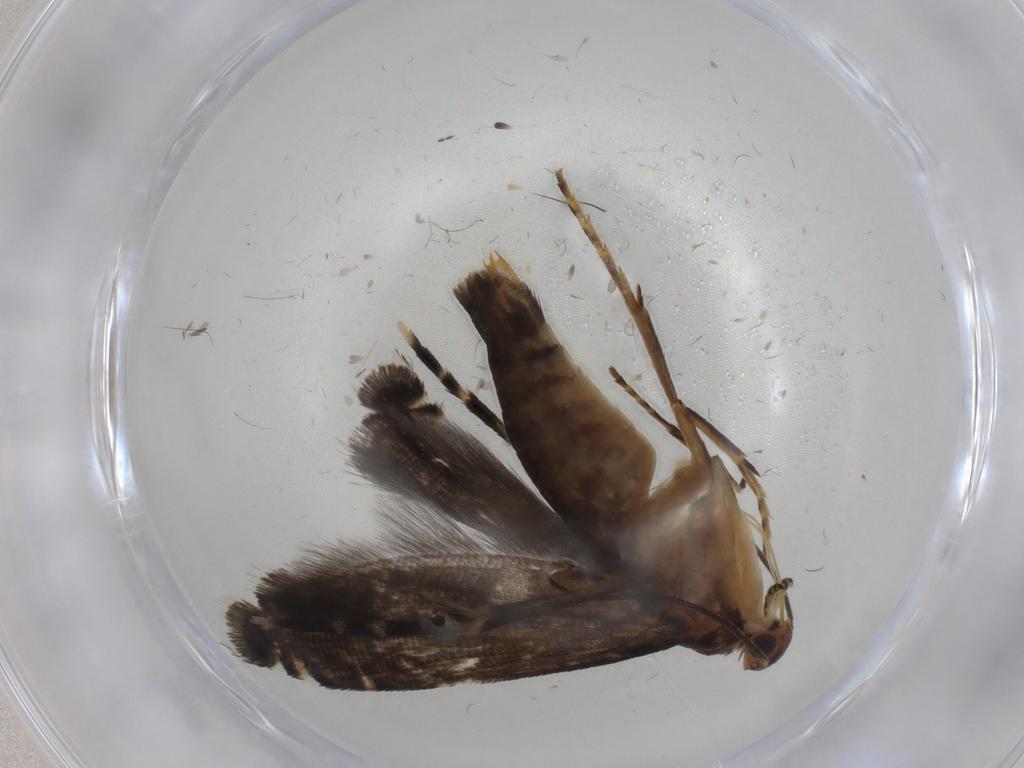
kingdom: Animalia
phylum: Arthropoda
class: Insecta
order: Lepidoptera
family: Glyphipterigidae
